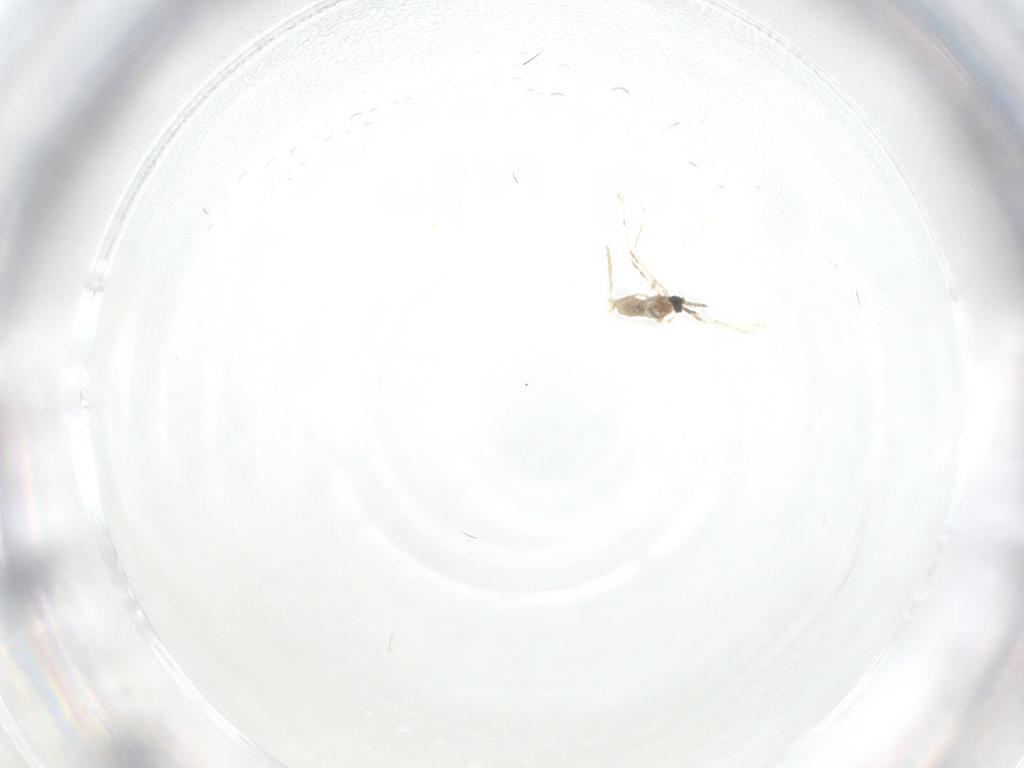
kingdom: Animalia
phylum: Arthropoda
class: Insecta
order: Diptera
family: Cecidomyiidae
